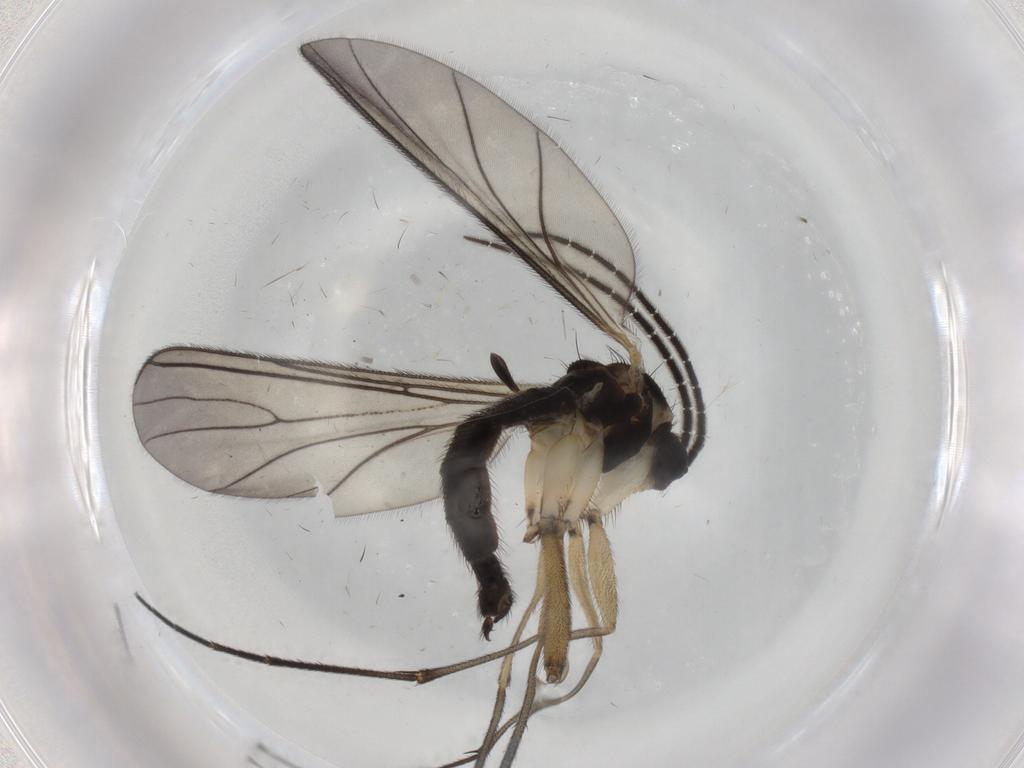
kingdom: Animalia
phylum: Arthropoda
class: Insecta
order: Diptera
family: Sciaridae
